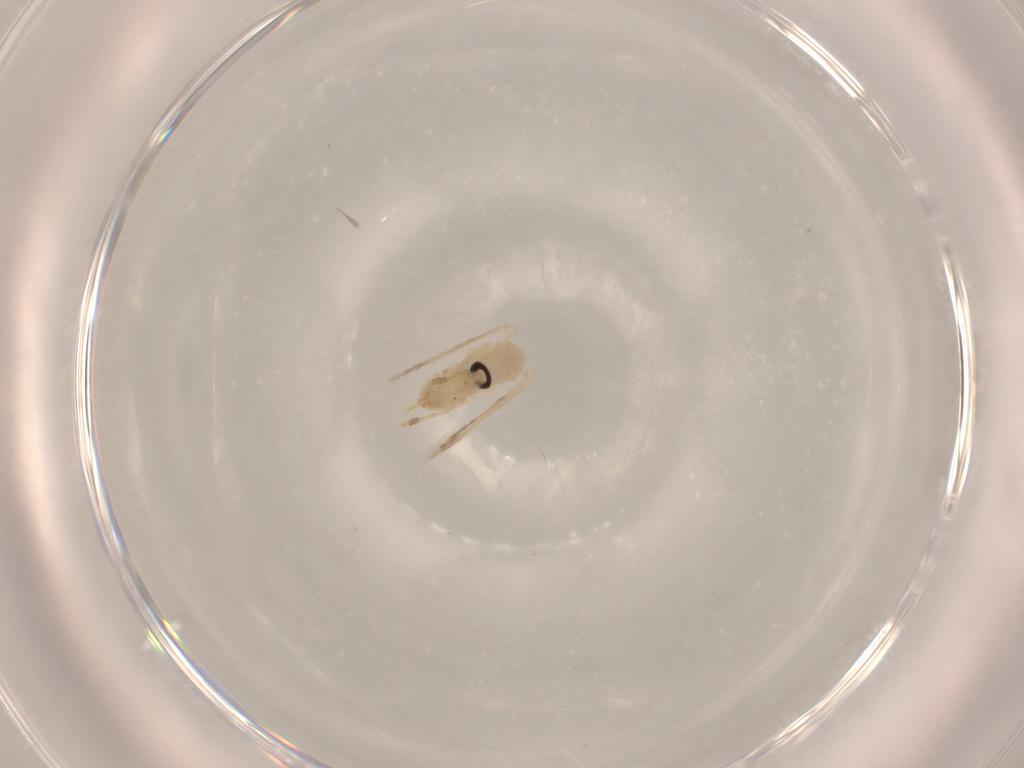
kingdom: Animalia
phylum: Arthropoda
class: Insecta
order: Diptera
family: Psychodidae
